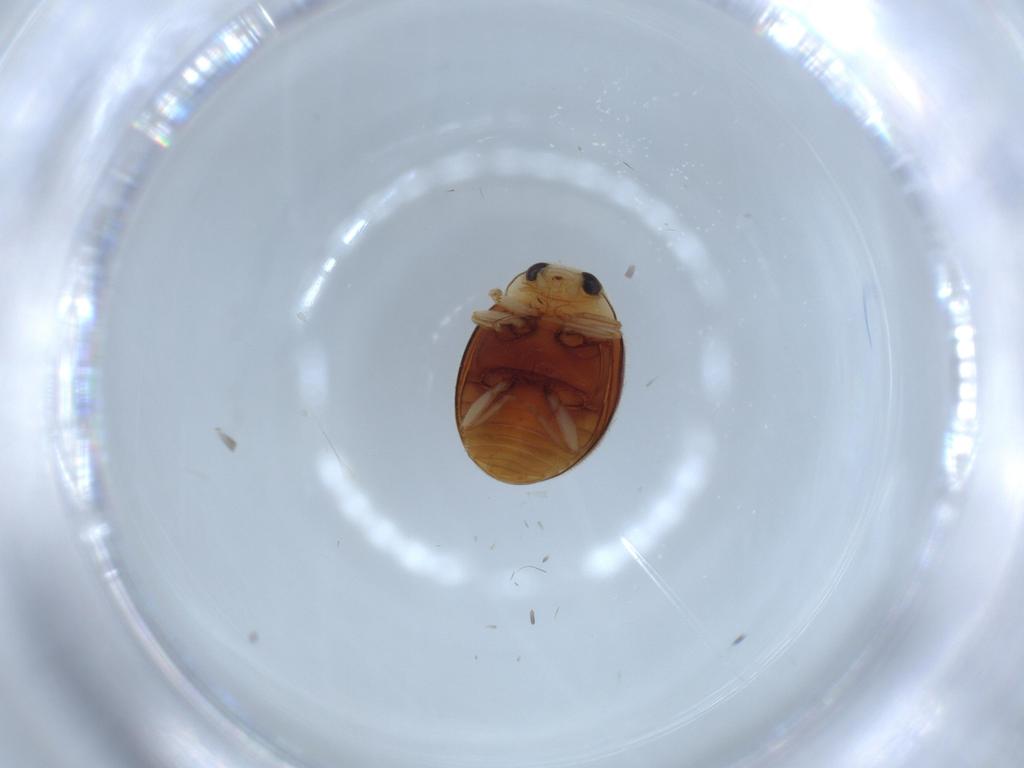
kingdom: Animalia
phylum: Arthropoda
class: Insecta
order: Coleoptera
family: Coccinellidae
